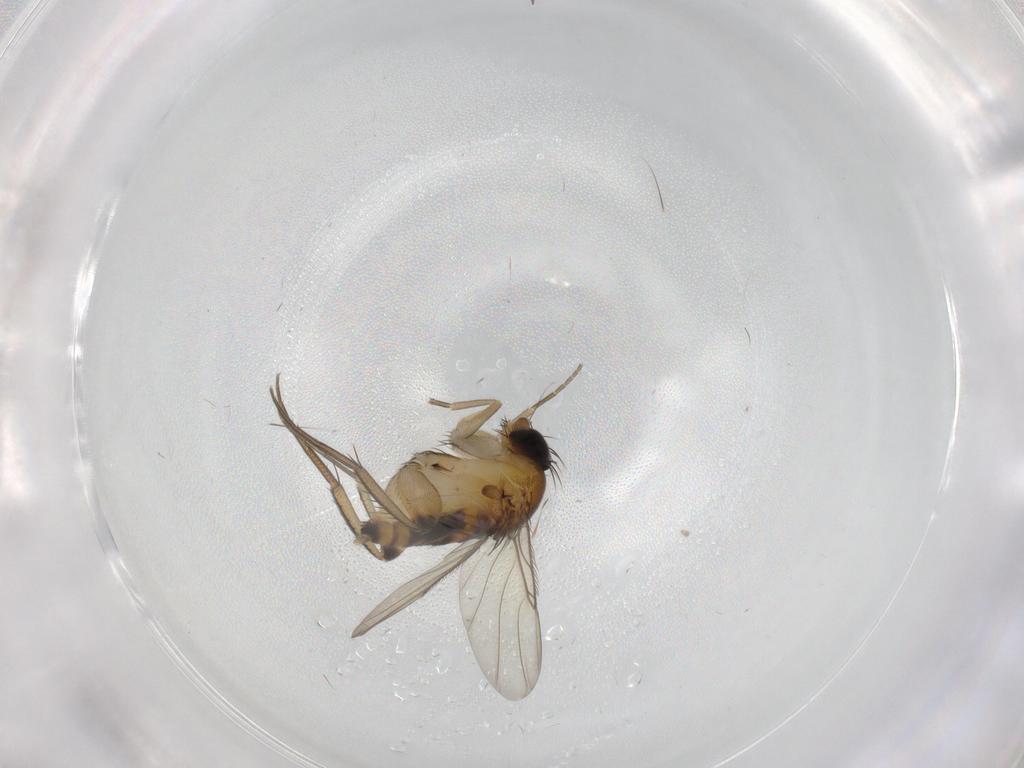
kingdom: Animalia
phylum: Arthropoda
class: Insecta
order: Diptera
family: Phoridae
